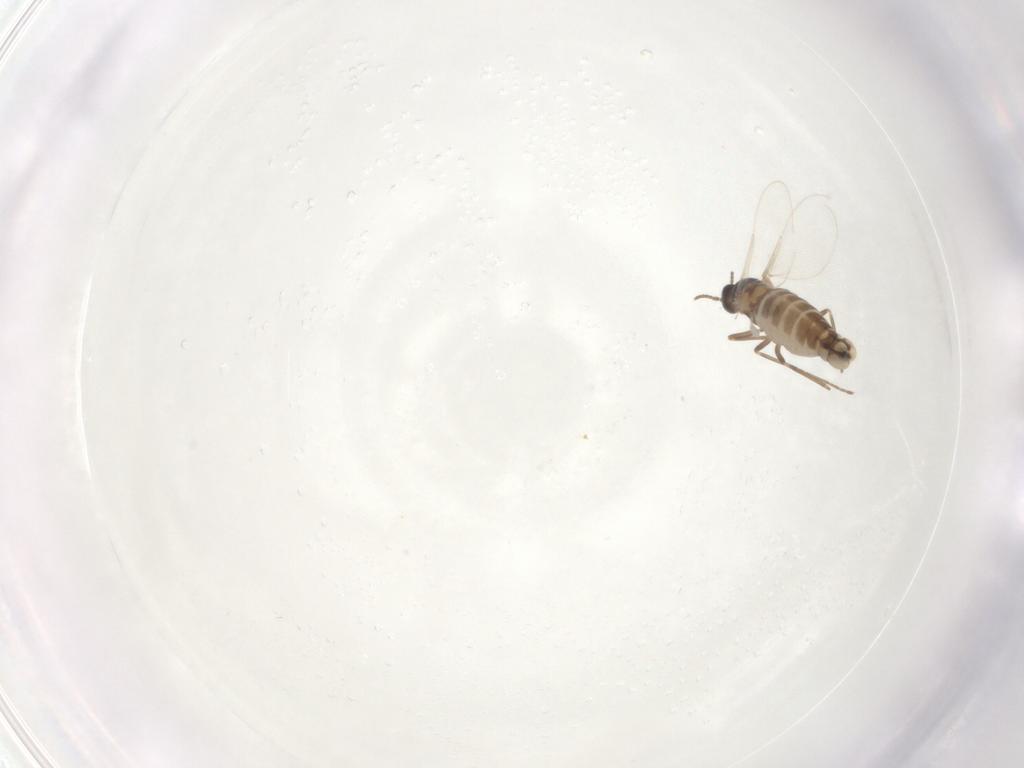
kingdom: Animalia
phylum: Arthropoda
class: Insecta
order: Diptera
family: Cecidomyiidae
